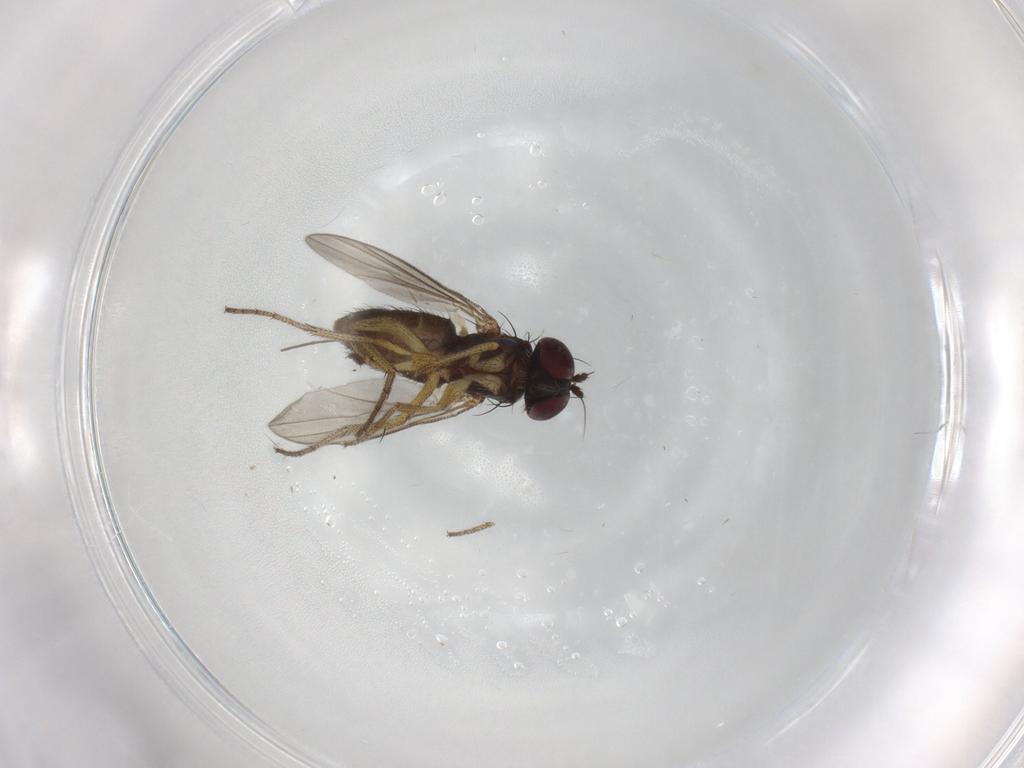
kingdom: Animalia
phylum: Arthropoda
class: Insecta
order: Diptera
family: Chironomidae
